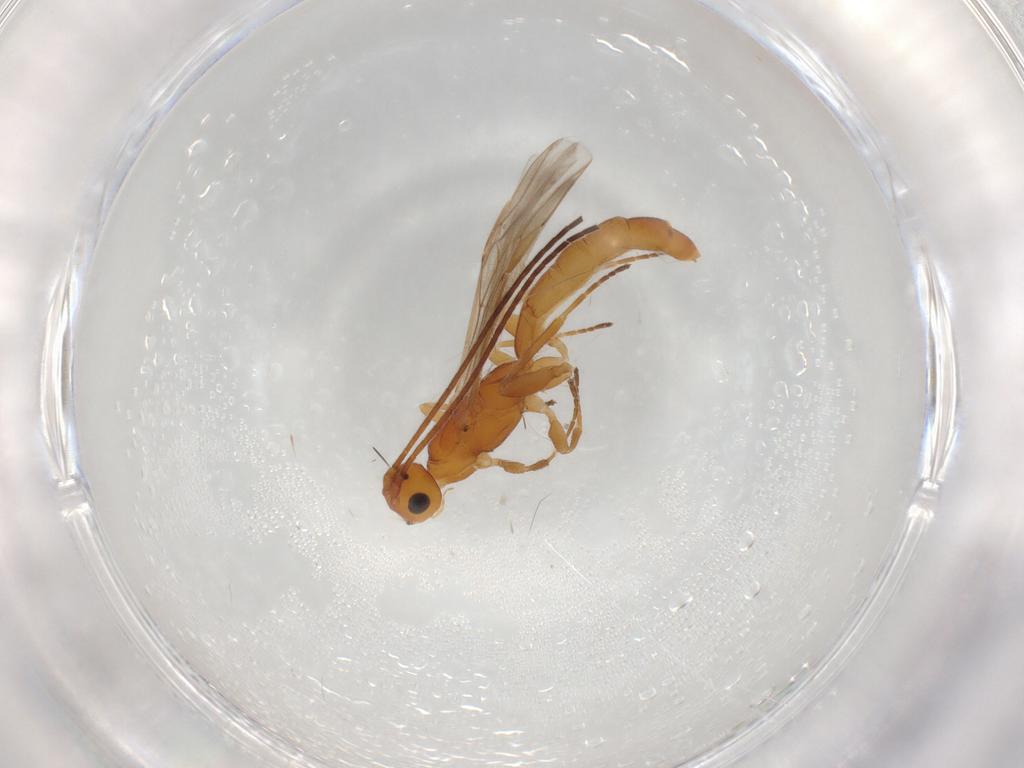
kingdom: Animalia
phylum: Arthropoda
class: Insecta
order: Hymenoptera
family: Braconidae
